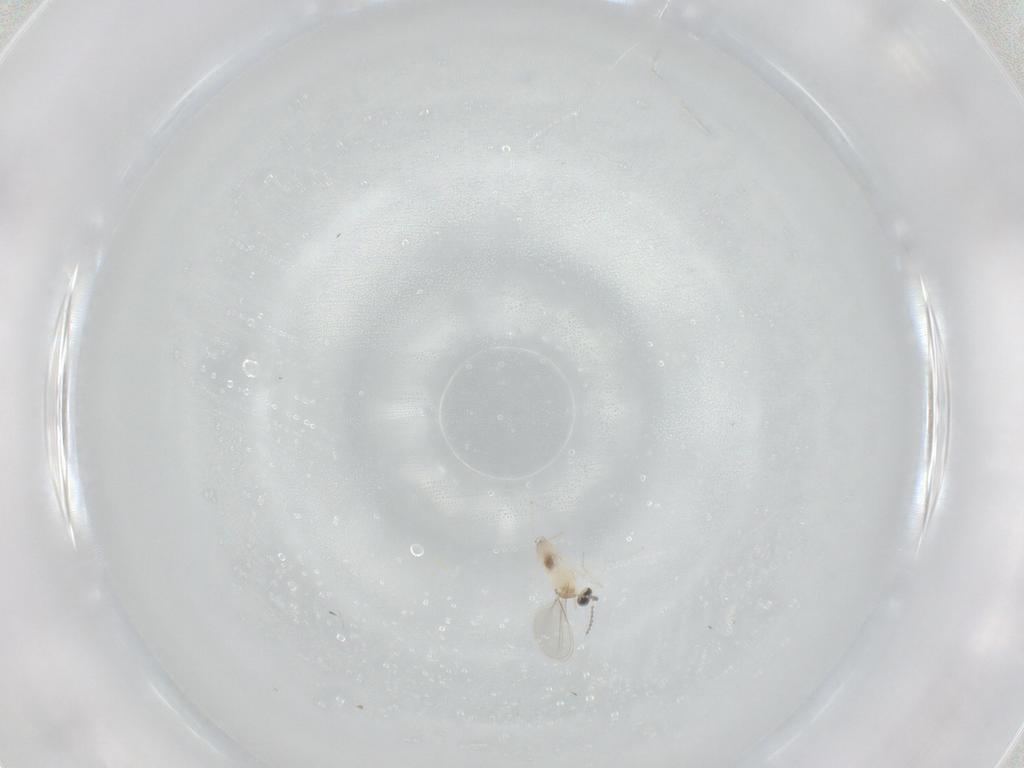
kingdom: Animalia
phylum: Arthropoda
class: Insecta
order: Diptera
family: Cecidomyiidae
